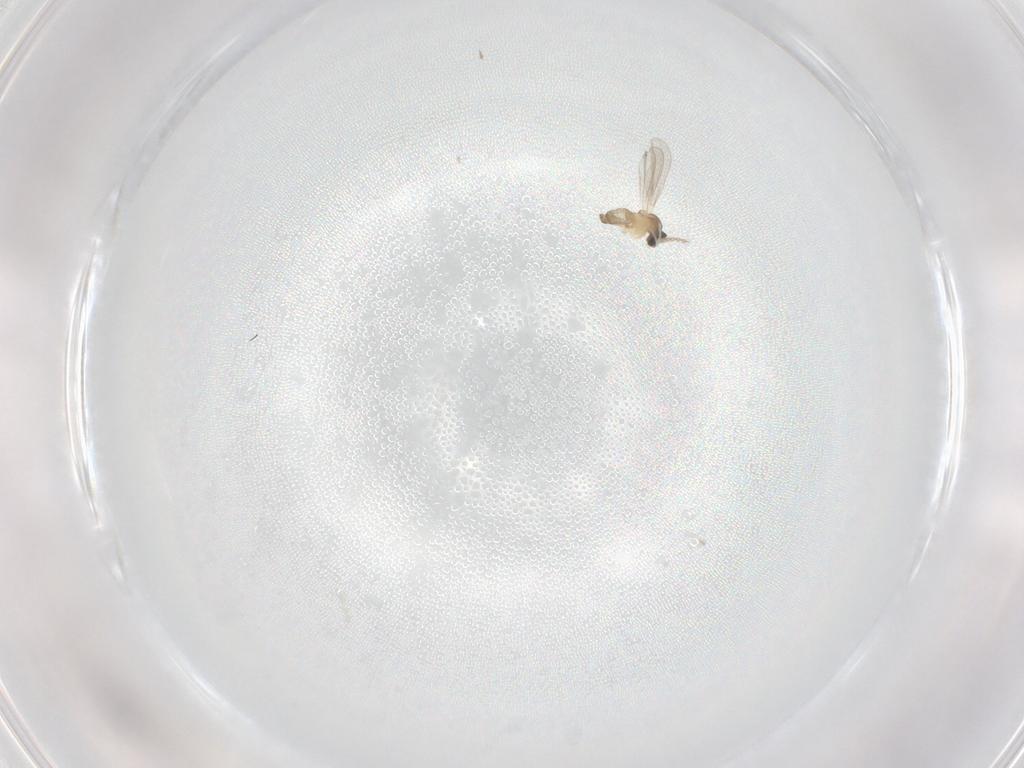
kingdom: Animalia
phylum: Arthropoda
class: Insecta
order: Diptera
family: Cecidomyiidae
